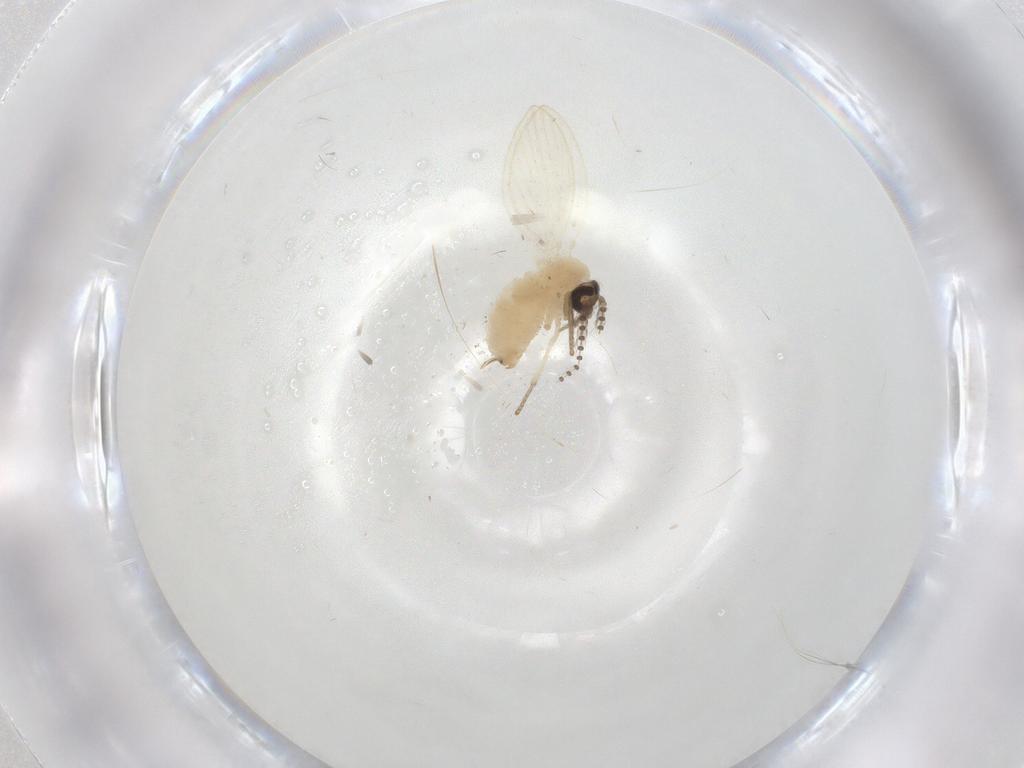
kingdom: Animalia
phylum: Arthropoda
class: Insecta
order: Diptera
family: Psychodidae
